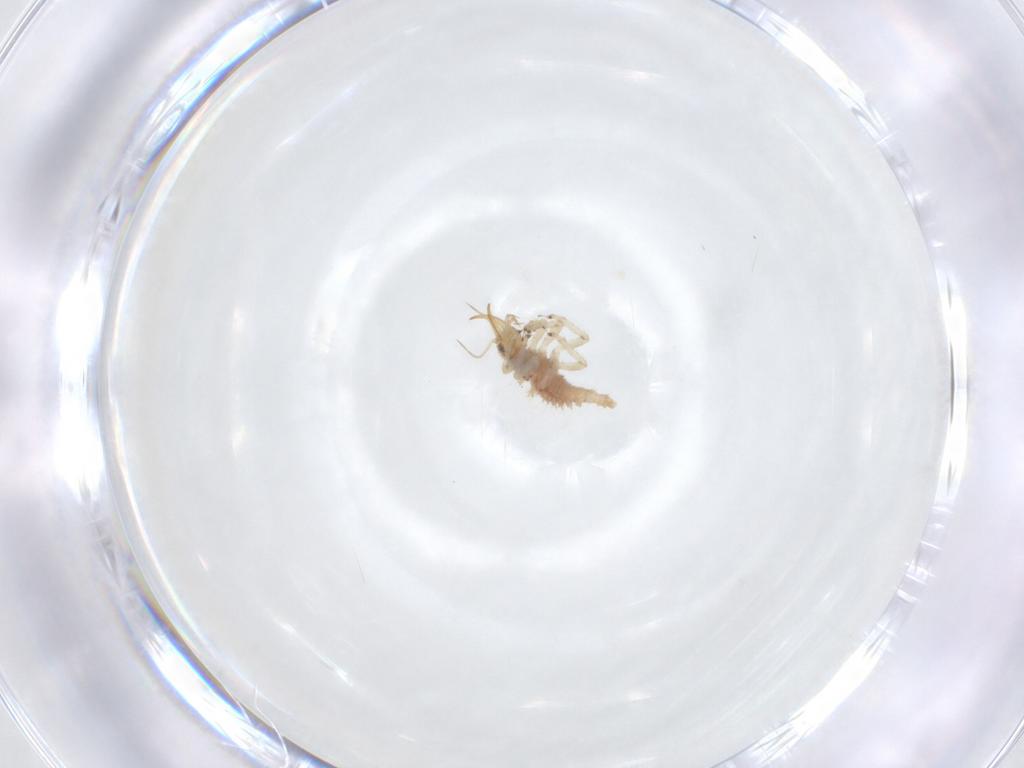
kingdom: Animalia
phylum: Arthropoda
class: Insecta
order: Neuroptera
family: Chrysopidae
